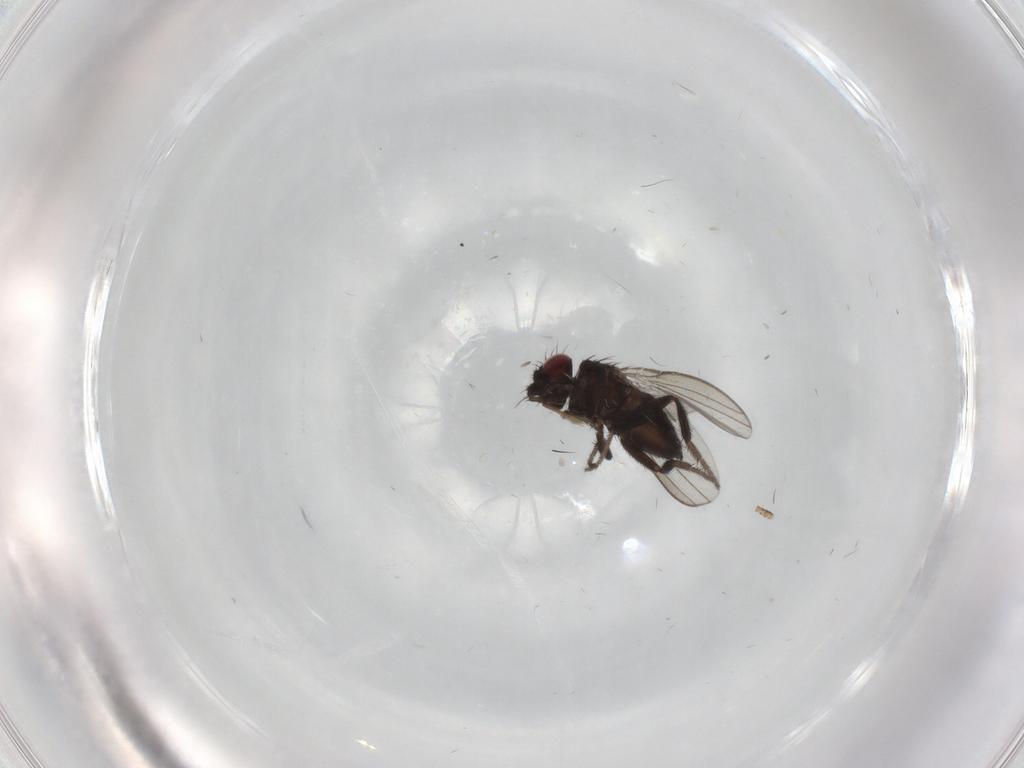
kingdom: Animalia
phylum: Arthropoda
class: Insecta
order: Diptera
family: Milichiidae
